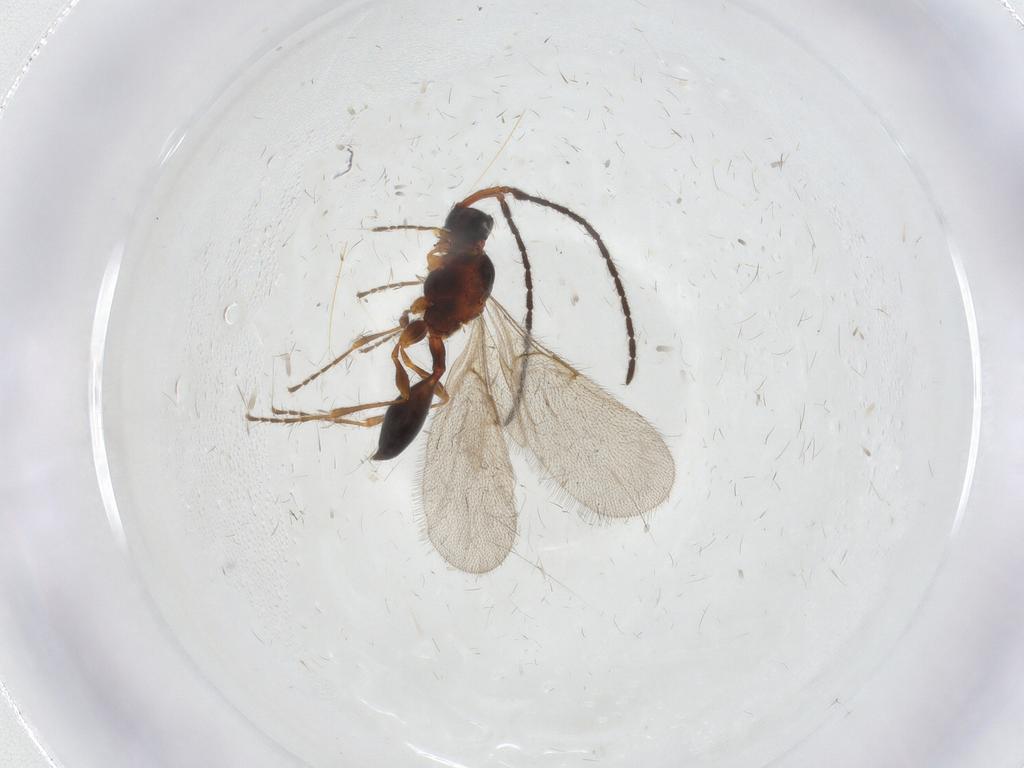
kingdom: Animalia
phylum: Arthropoda
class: Insecta
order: Hymenoptera
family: Diapriidae
